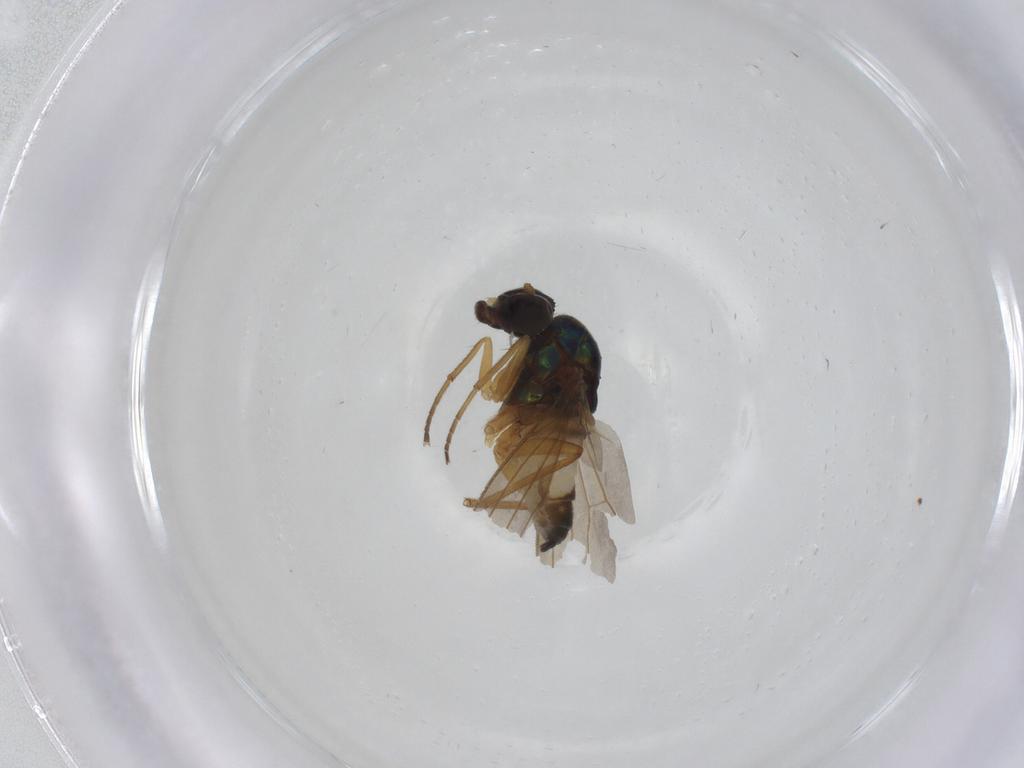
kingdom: Animalia
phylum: Arthropoda
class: Insecta
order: Diptera
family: Dolichopodidae
